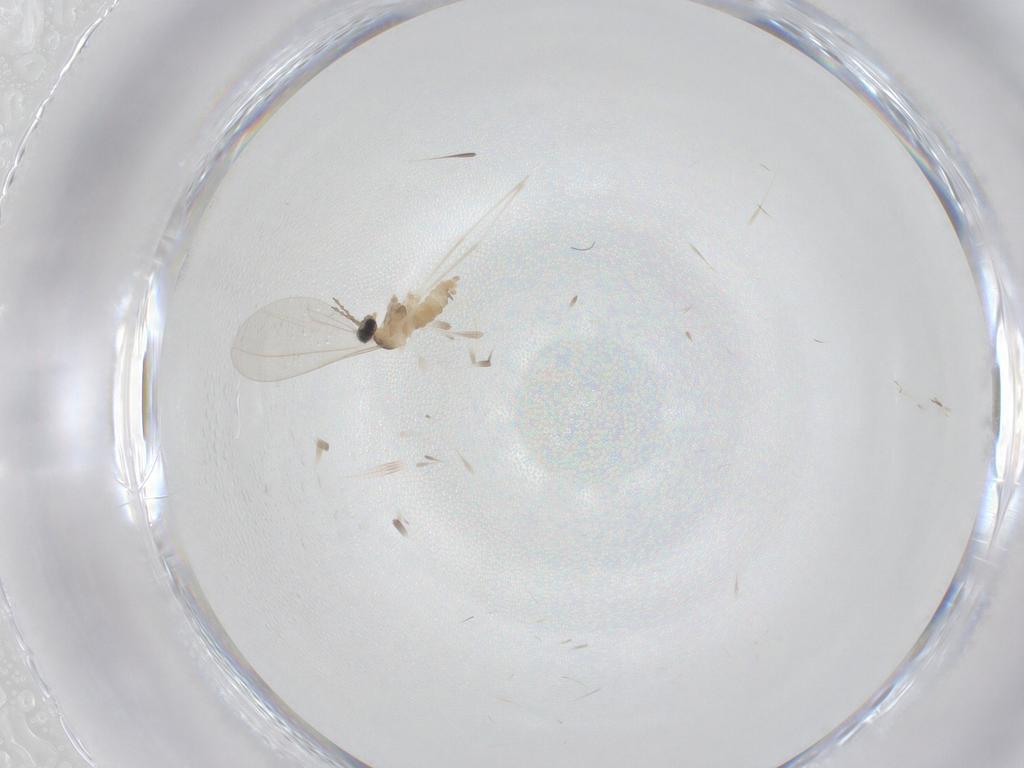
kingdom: Animalia
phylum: Arthropoda
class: Insecta
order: Diptera
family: Cecidomyiidae
